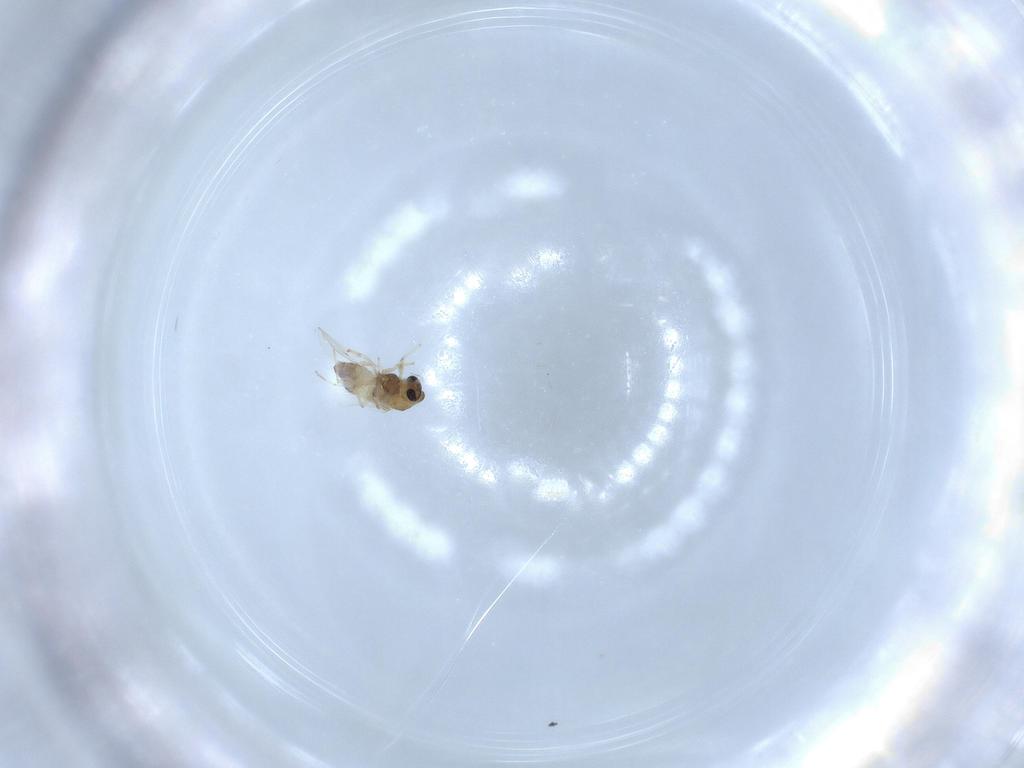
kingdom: Animalia
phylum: Arthropoda
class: Insecta
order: Diptera
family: Chironomidae
